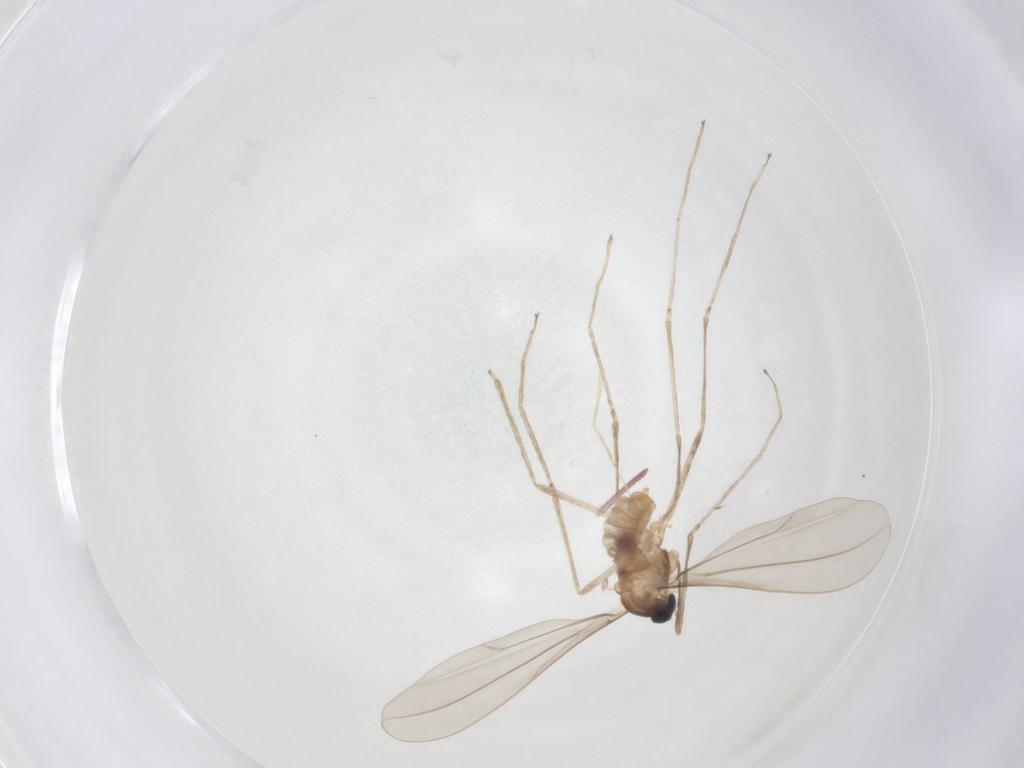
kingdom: Animalia
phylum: Arthropoda
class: Insecta
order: Diptera
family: Cecidomyiidae
